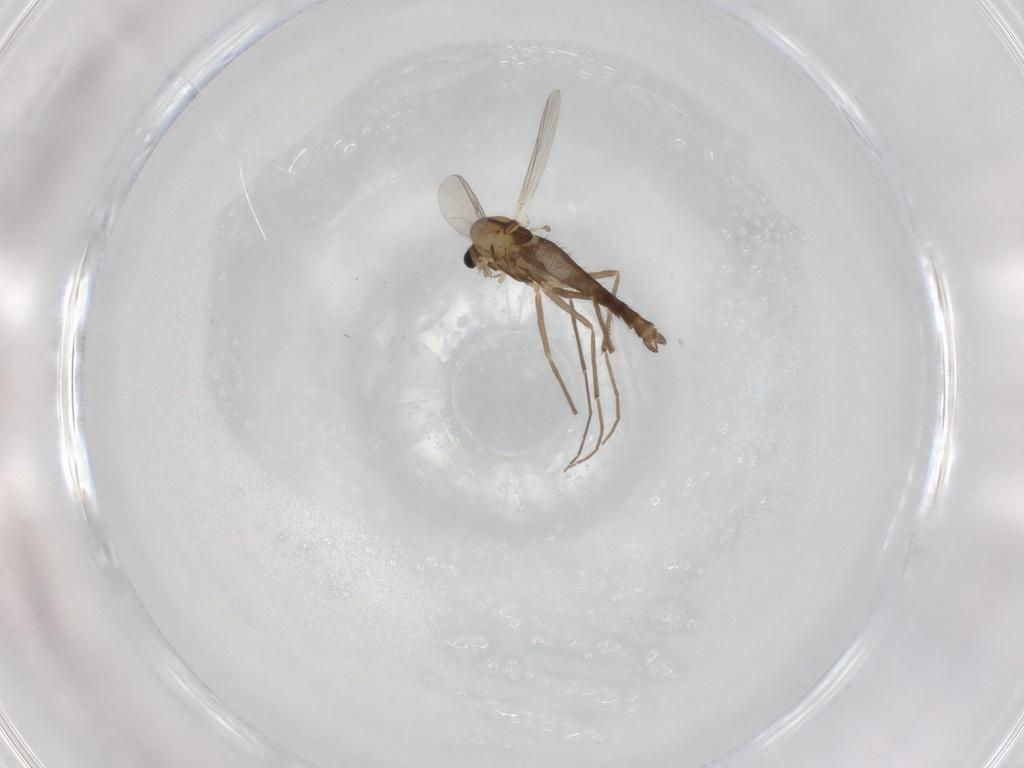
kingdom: Animalia
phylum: Arthropoda
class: Insecta
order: Diptera
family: Chironomidae
